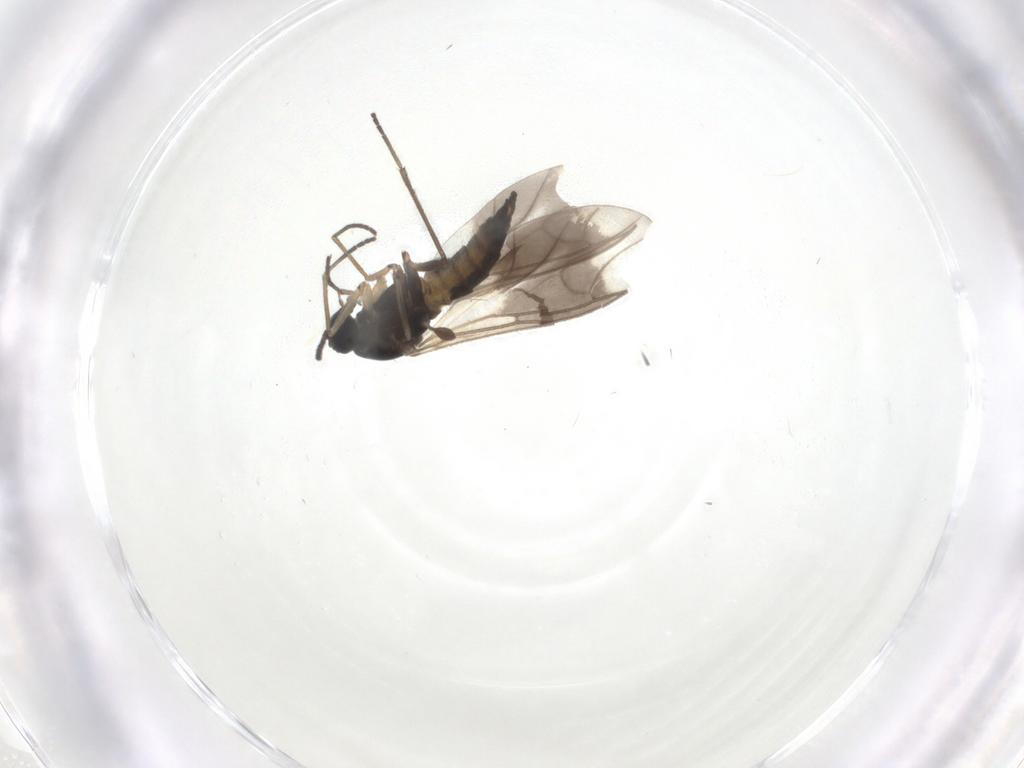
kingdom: Animalia
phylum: Arthropoda
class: Insecta
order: Diptera
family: Sciaridae
